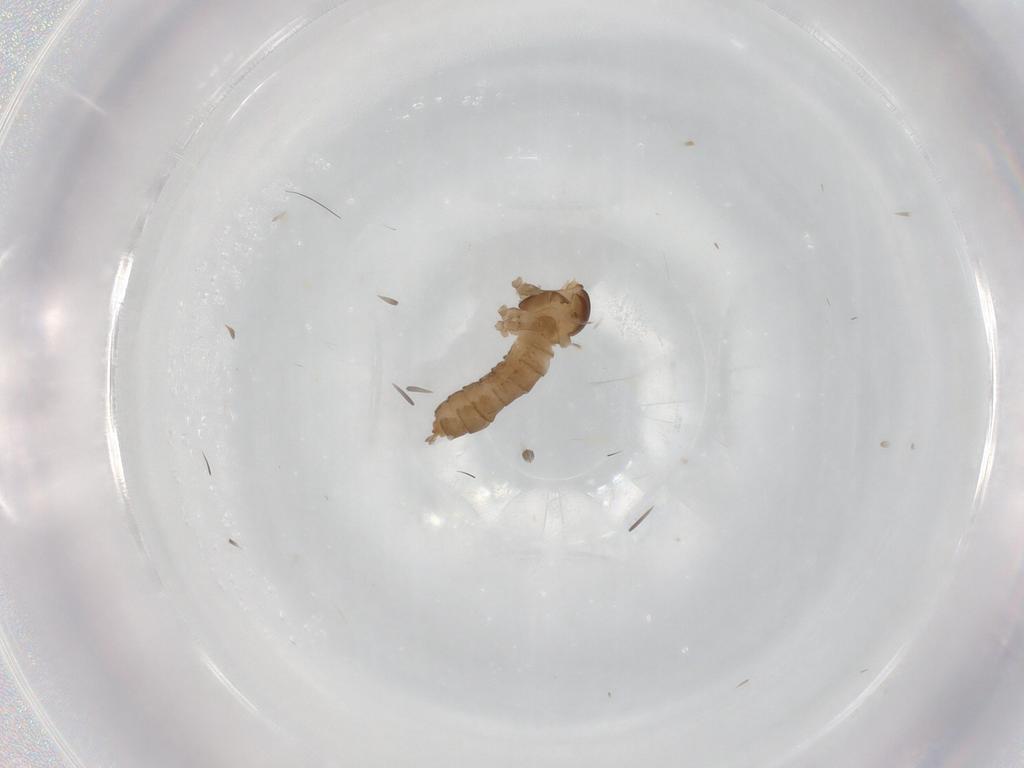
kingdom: Animalia
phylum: Arthropoda
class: Insecta
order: Diptera
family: Cecidomyiidae
